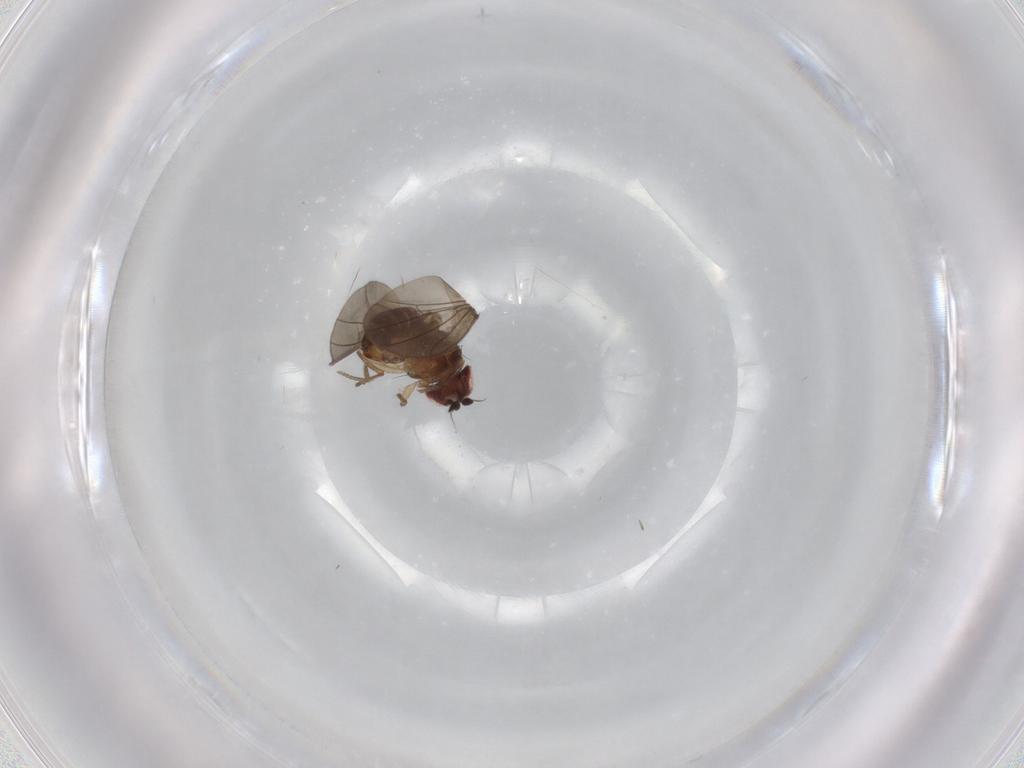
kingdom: Animalia
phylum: Arthropoda
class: Insecta
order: Diptera
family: Drosophilidae
